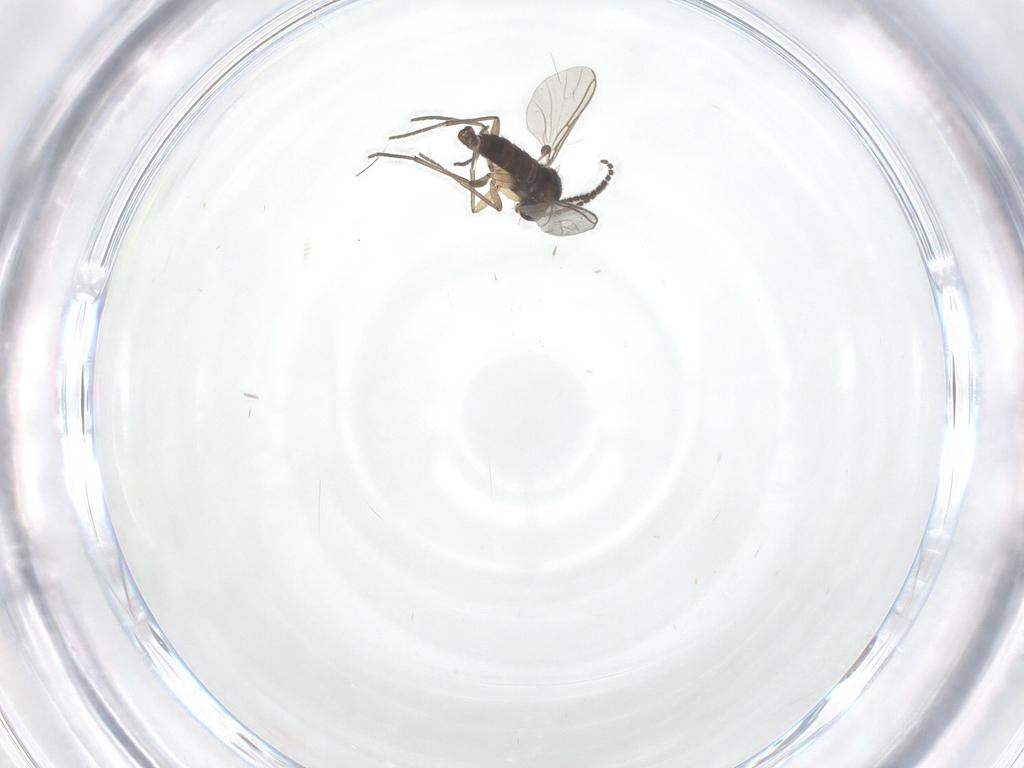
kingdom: Animalia
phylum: Arthropoda
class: Insecta
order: Diptera
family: Sciaridae
